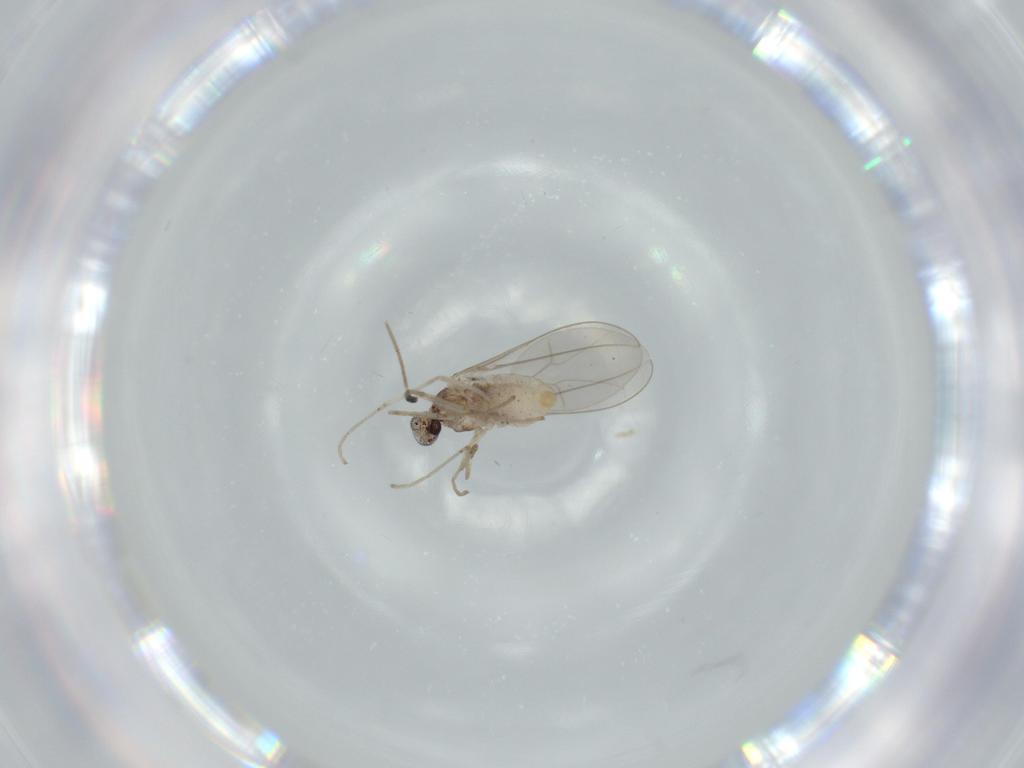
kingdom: Animalia
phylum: Arthropoda
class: Insecta
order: Diptera
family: Cecidomyiidae
